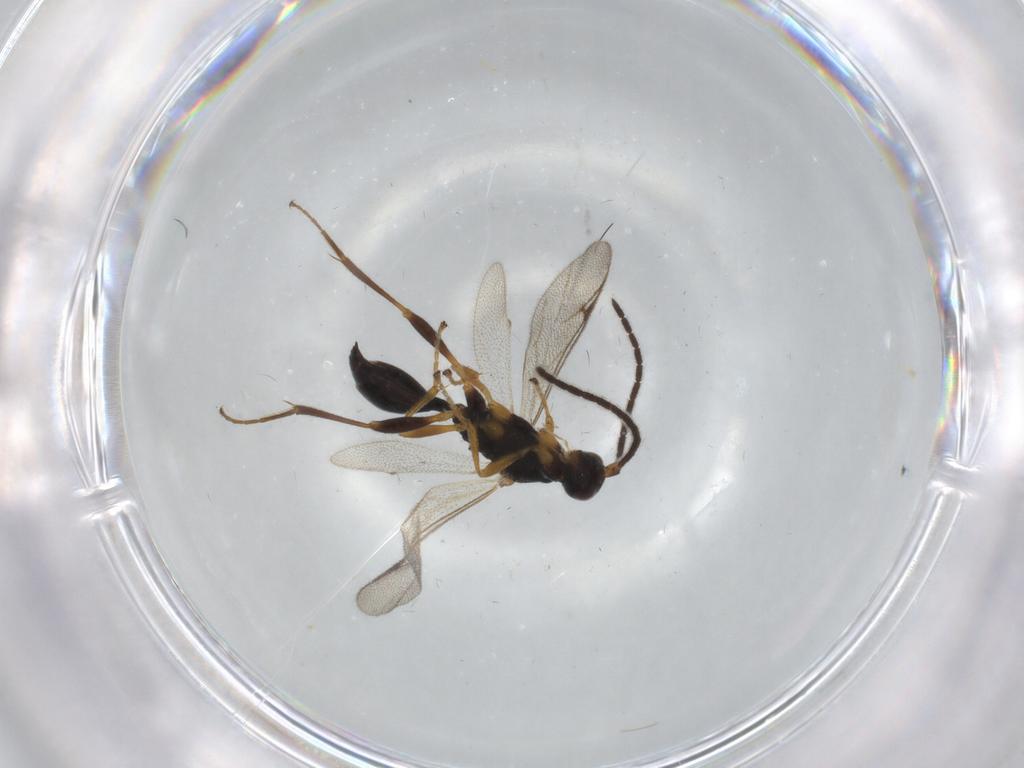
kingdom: Animalia
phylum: Arthropoda
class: Insecta
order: Hymenoptera
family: Proctotrupidae
